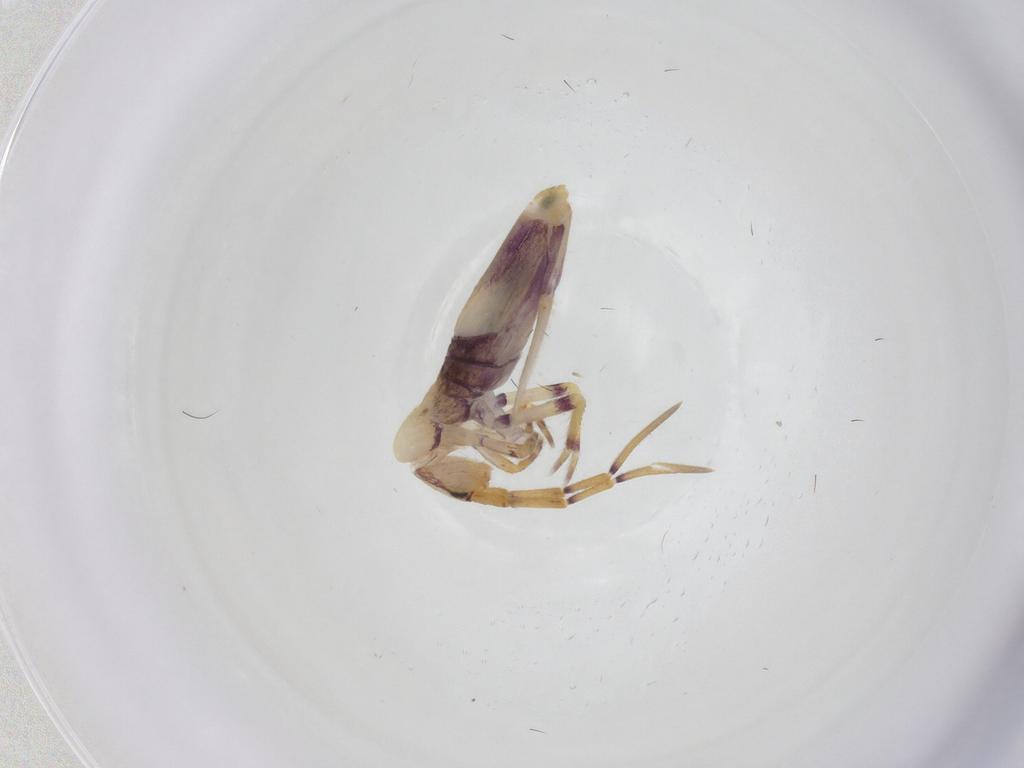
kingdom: Animalia
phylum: Arthropoda
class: Collembola
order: Entomobryomorpha
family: Entomobryidae
